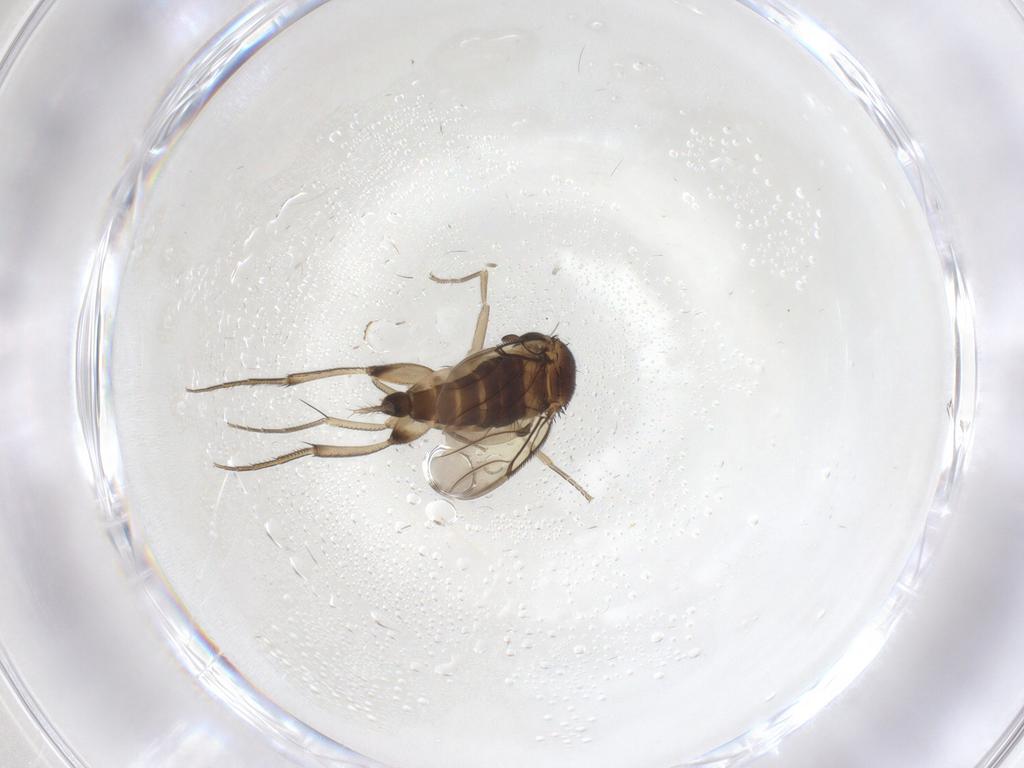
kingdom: Animalia
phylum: Arthropoda
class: Insecta
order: Diptera
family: Phoridae
